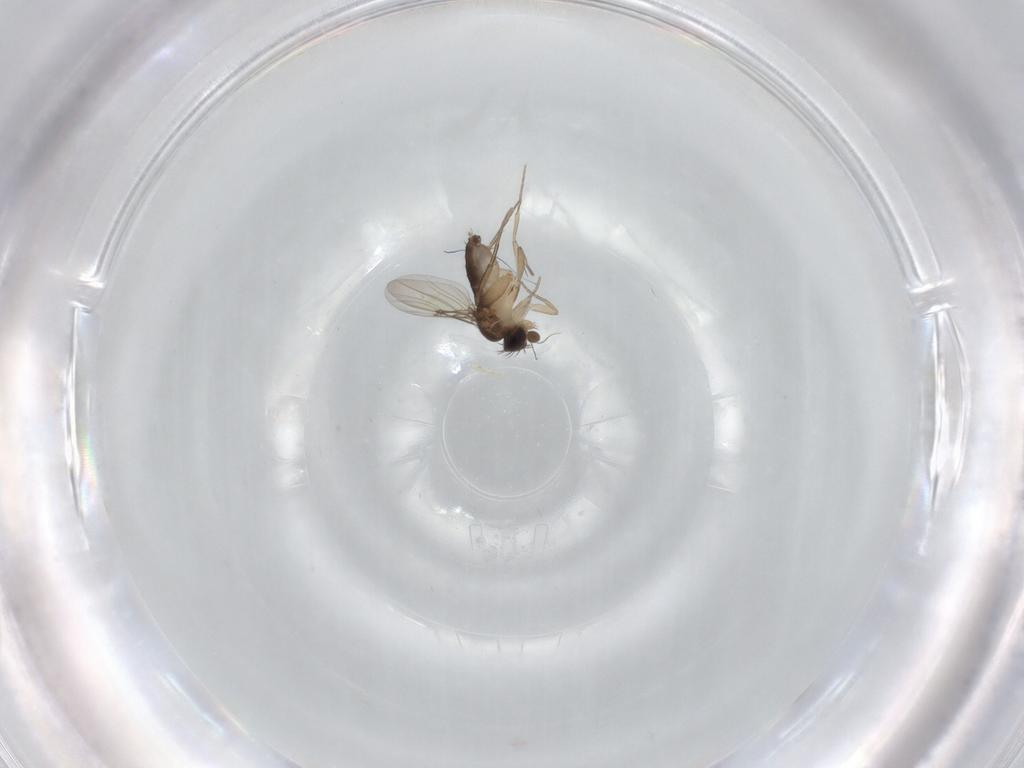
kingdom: Animalia
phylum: Arthropoda
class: Insecta
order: Diptera
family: Phoridae
